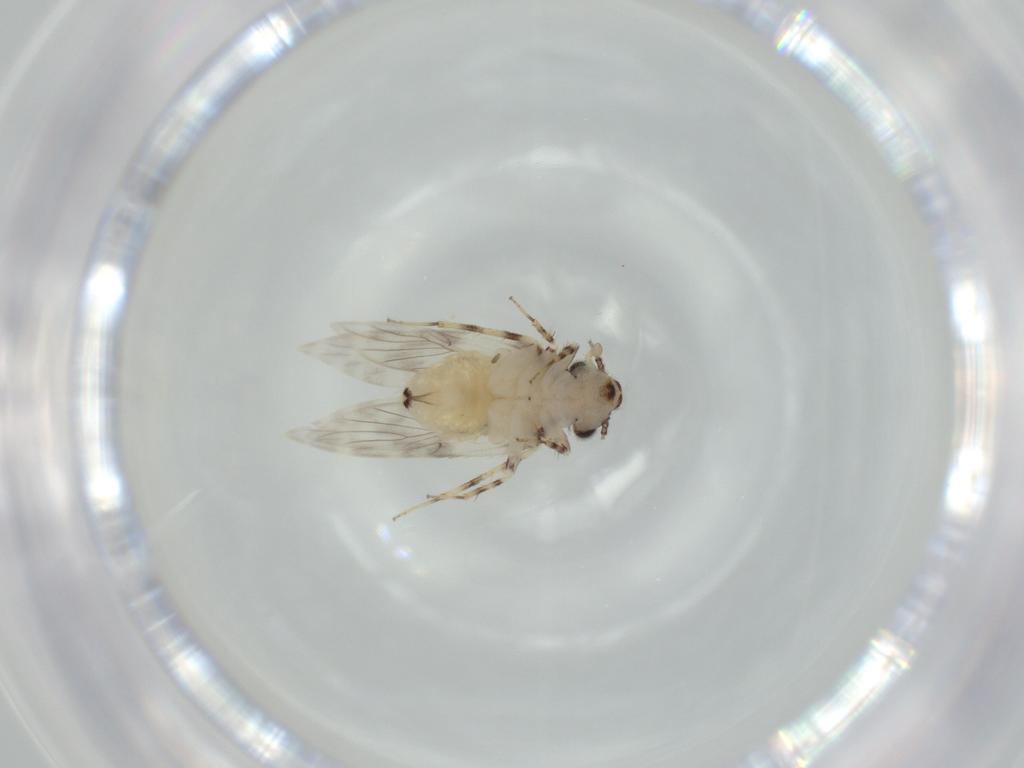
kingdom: Animalia
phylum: Arthropoda
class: Insecta
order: Psocodea
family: Lepidopsocidae
